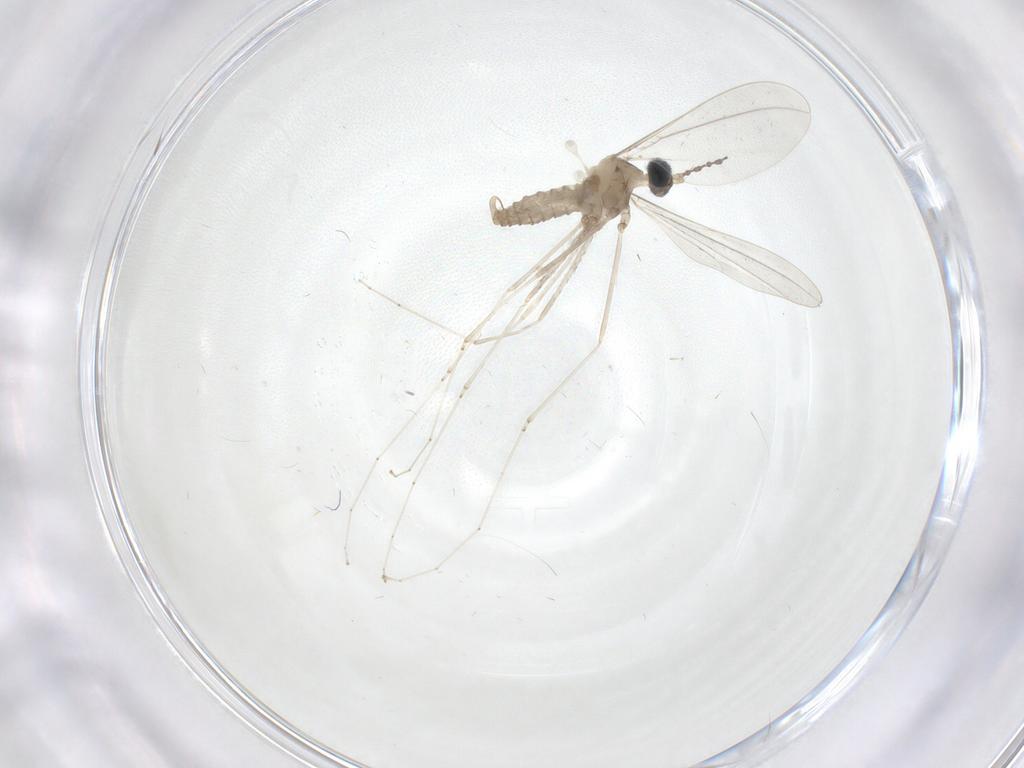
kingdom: Animalia
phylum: Arthropoda
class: Insecta
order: Diptera
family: Cecidomyiidae
